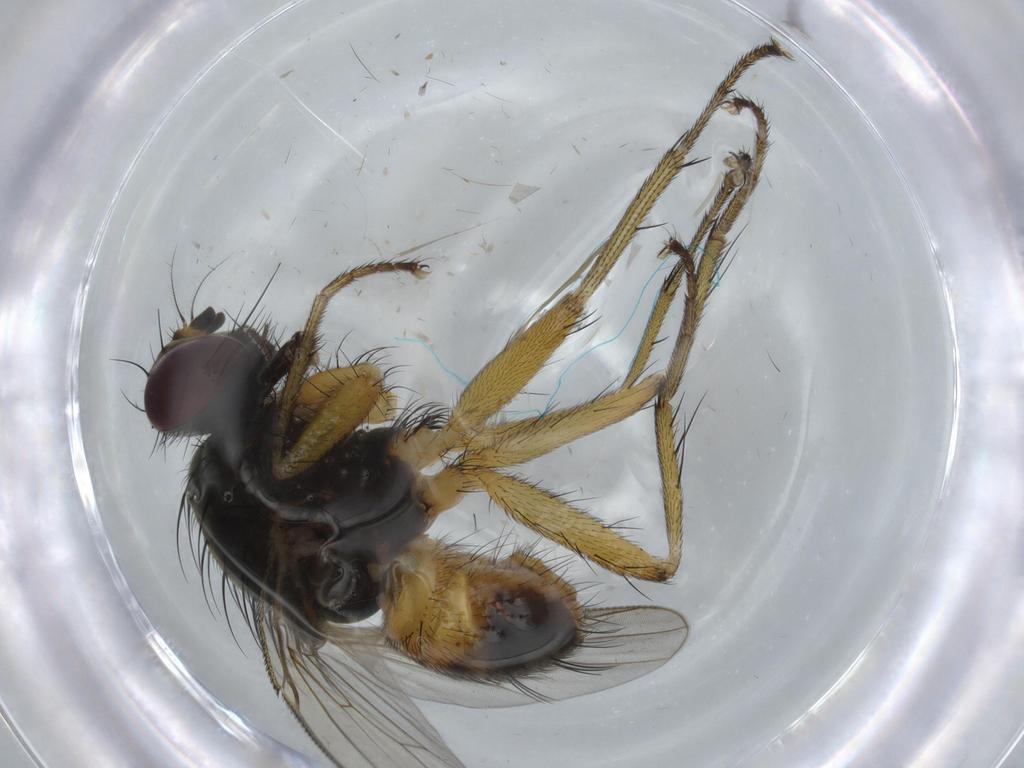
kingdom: Animalia
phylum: Arthropoda
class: Insecta
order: Diptera
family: Muscidae
